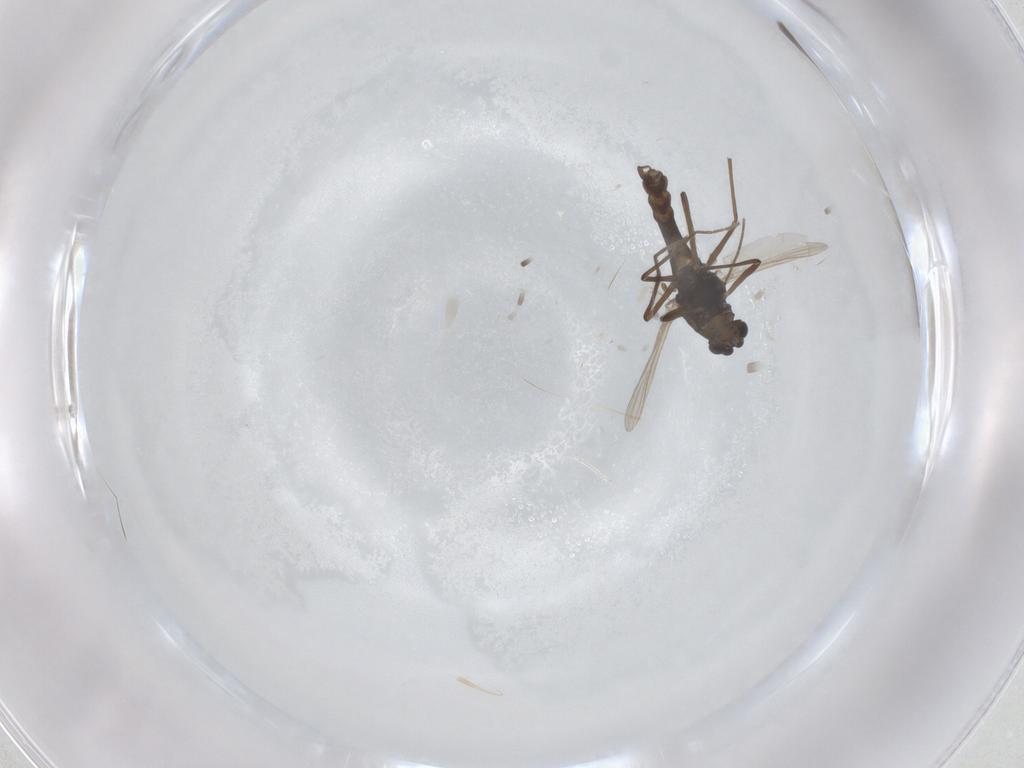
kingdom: Animalia
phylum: Arthropoda
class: Insecta
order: Diptera
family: Chironomidae
